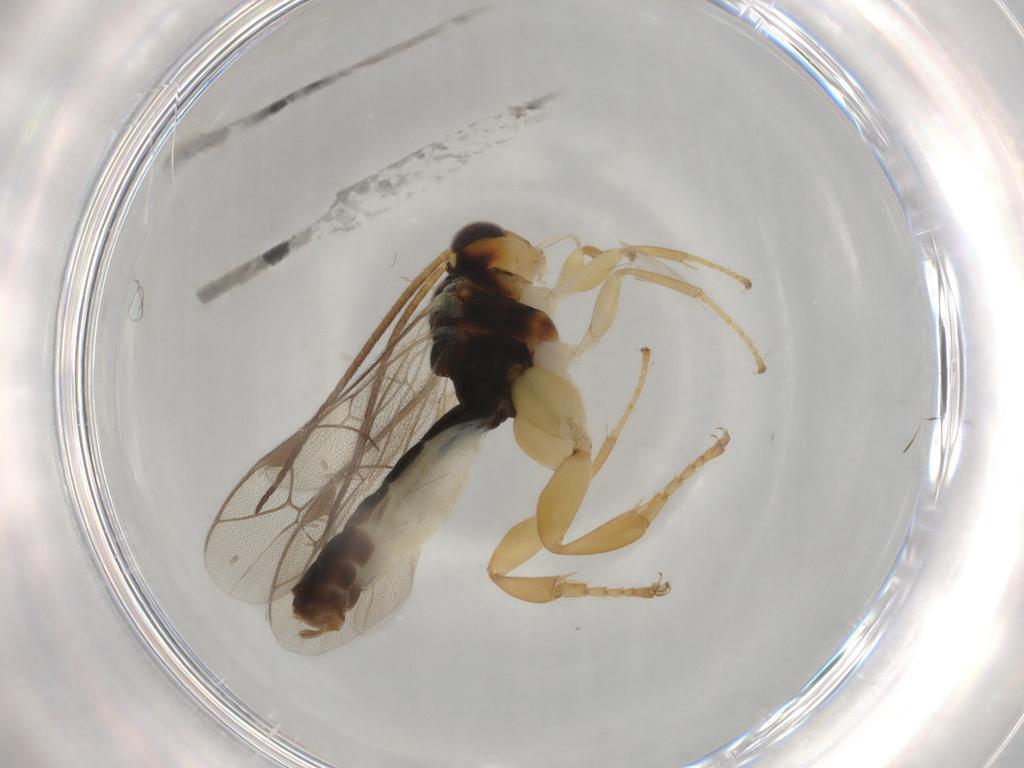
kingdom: Animalia
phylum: Arthropoda
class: Insecta
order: Hymenoptera
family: Ichneumonidae
